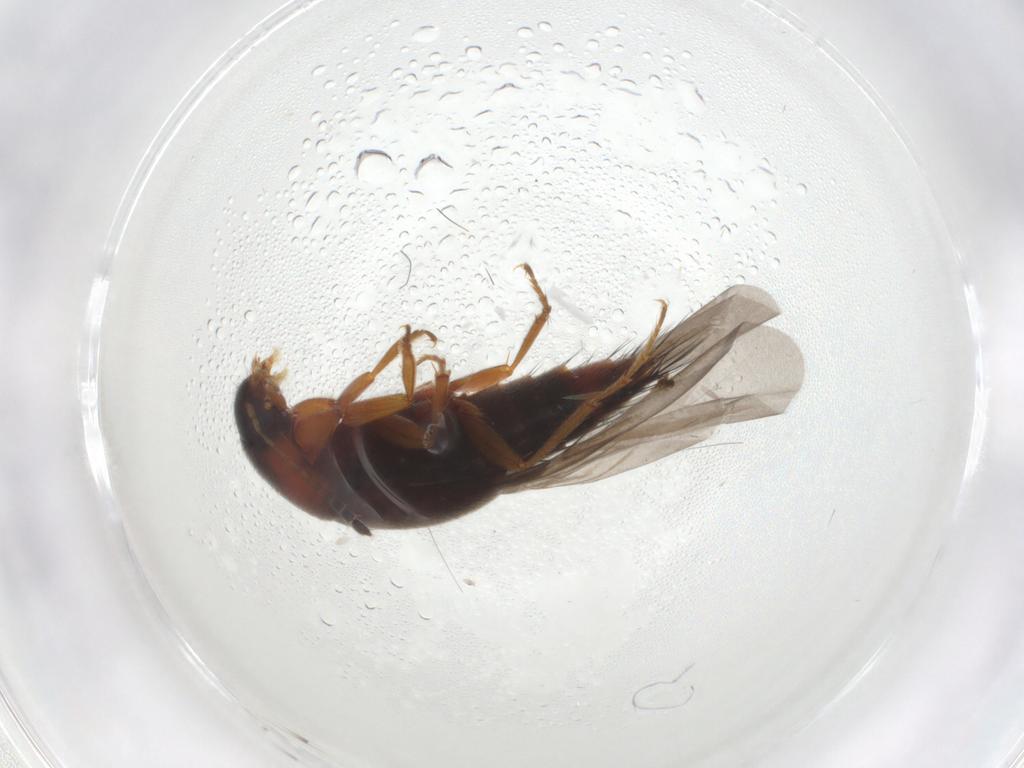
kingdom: Animalia
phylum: Arthropoda
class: Insecta
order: Coleoptera
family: Staphylinidae
